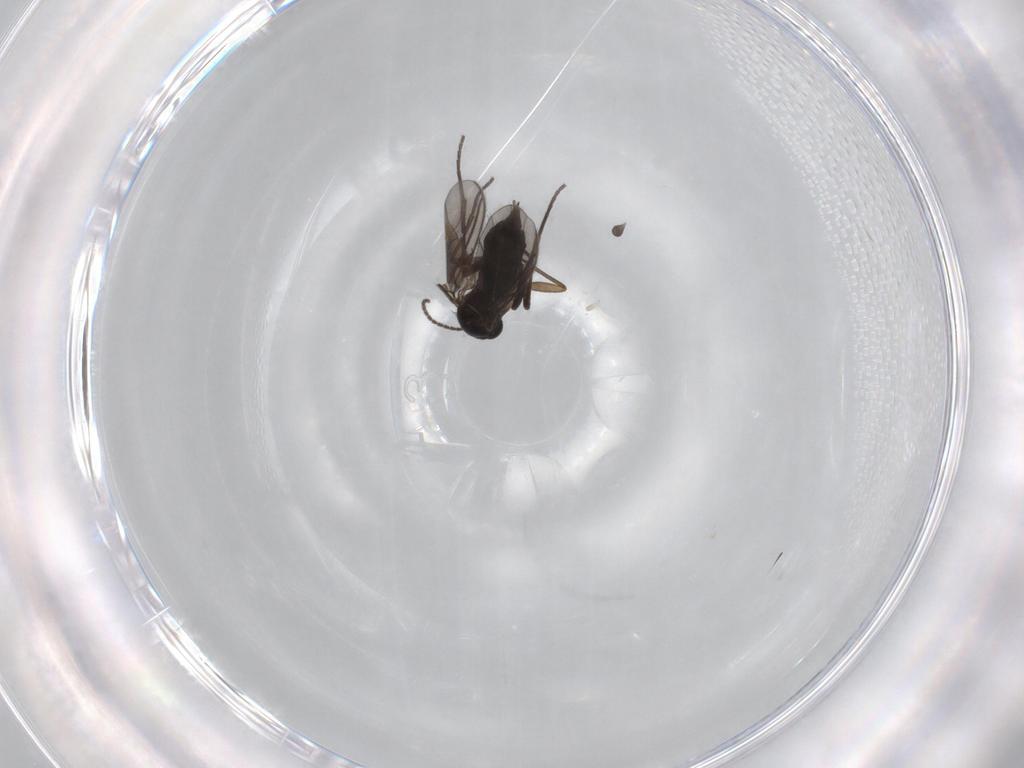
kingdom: Animalia
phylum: Arthropoda
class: Insecta
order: Diptera
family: Sciaridae
